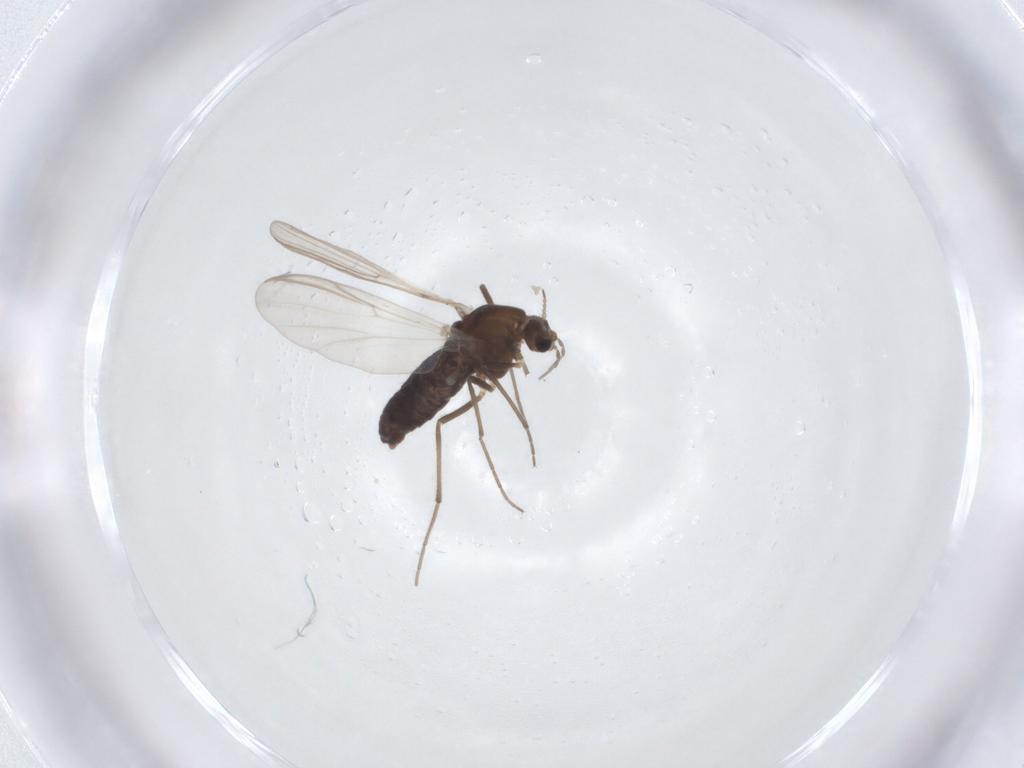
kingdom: Animalia
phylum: Arthropoda
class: Insecta
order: Diptera
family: Chironomidae
